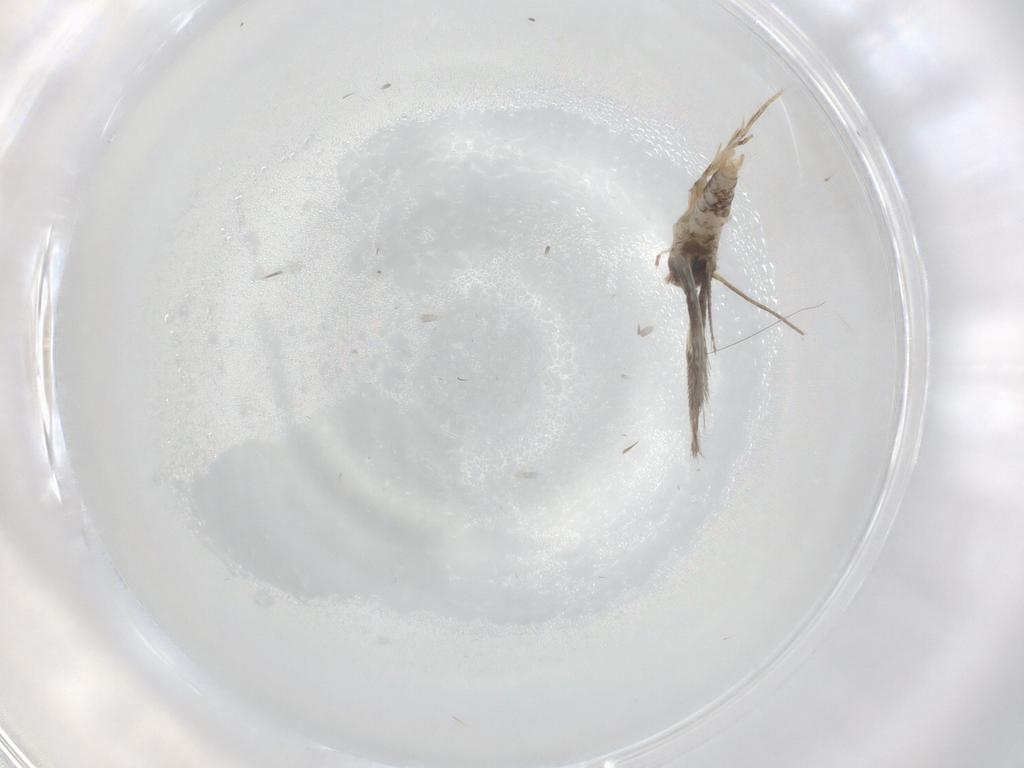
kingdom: Animalia
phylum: Arthropoda
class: Insecta
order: Lepidoptera
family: Elachistidae
